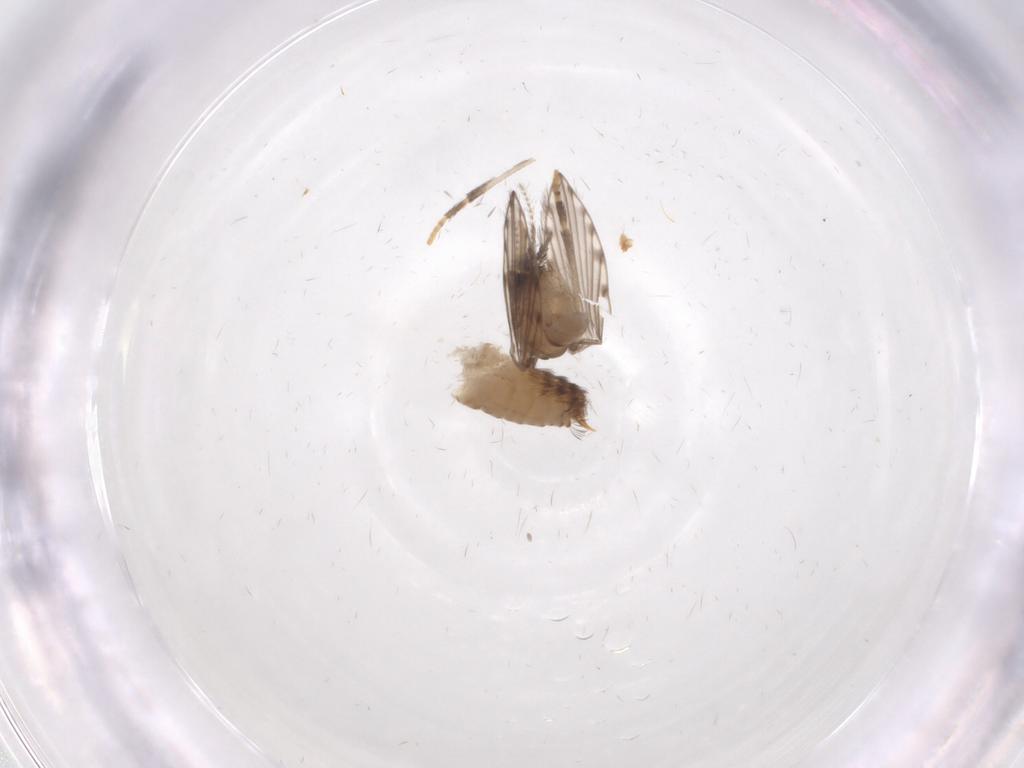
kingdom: Animalia
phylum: Arthropoda
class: Insecta
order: Diptera
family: Psychodidae
